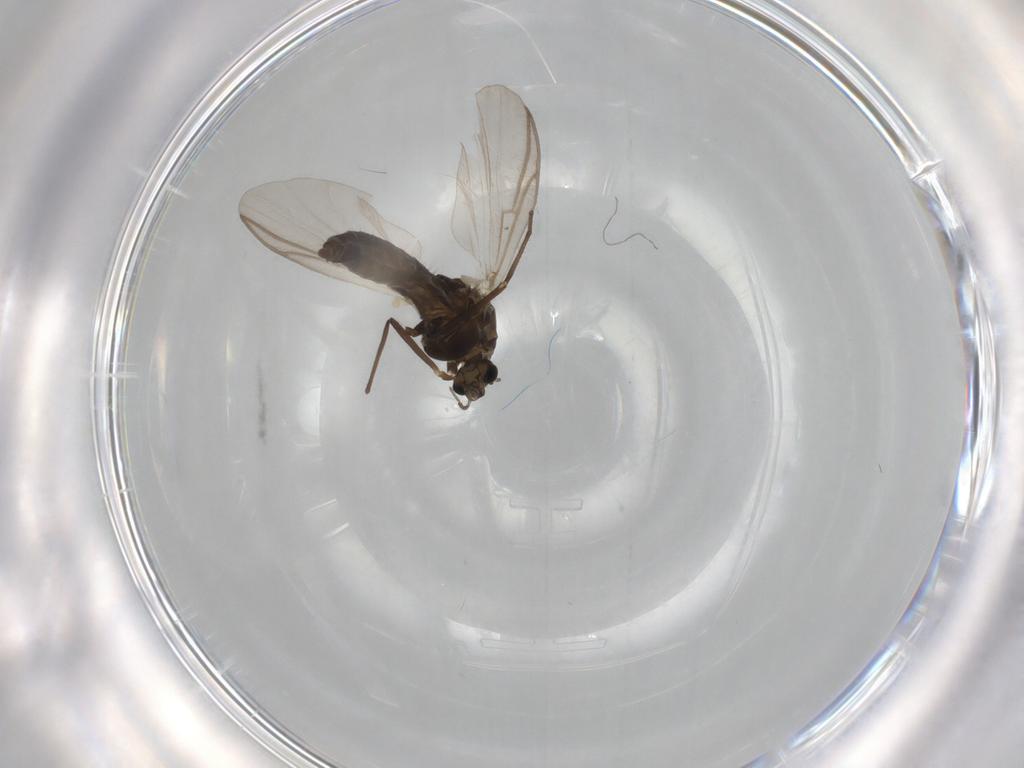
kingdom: Animalia
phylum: Arthropoda
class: Insecta
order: Diptera
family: Chironomidae
